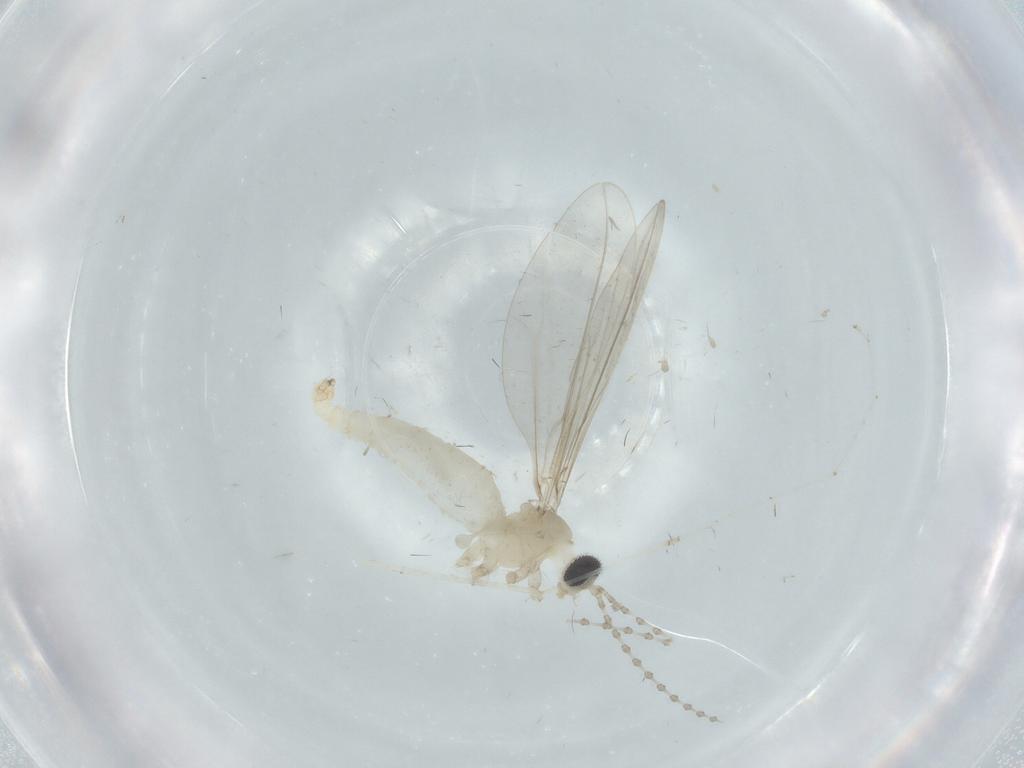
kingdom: Animalia
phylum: Arthropoda
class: Insecta
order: Diptera
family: Cecidomyiidae
